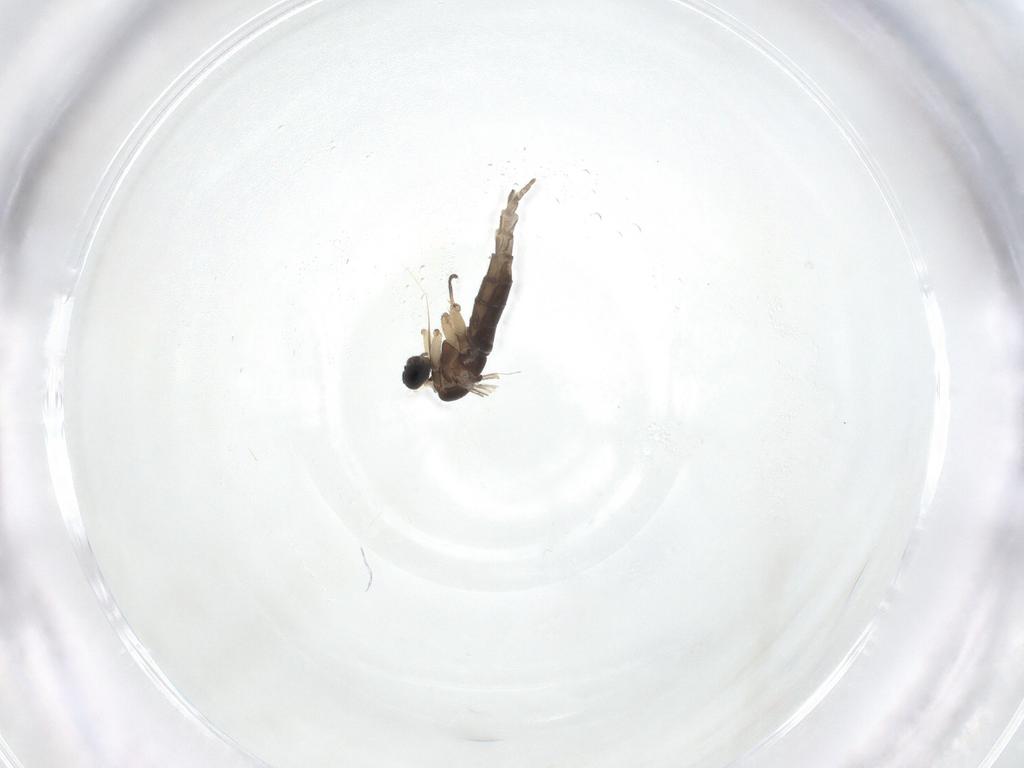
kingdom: Animalia
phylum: Arthropoda
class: Insecta
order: Diptera
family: Sciaridae
